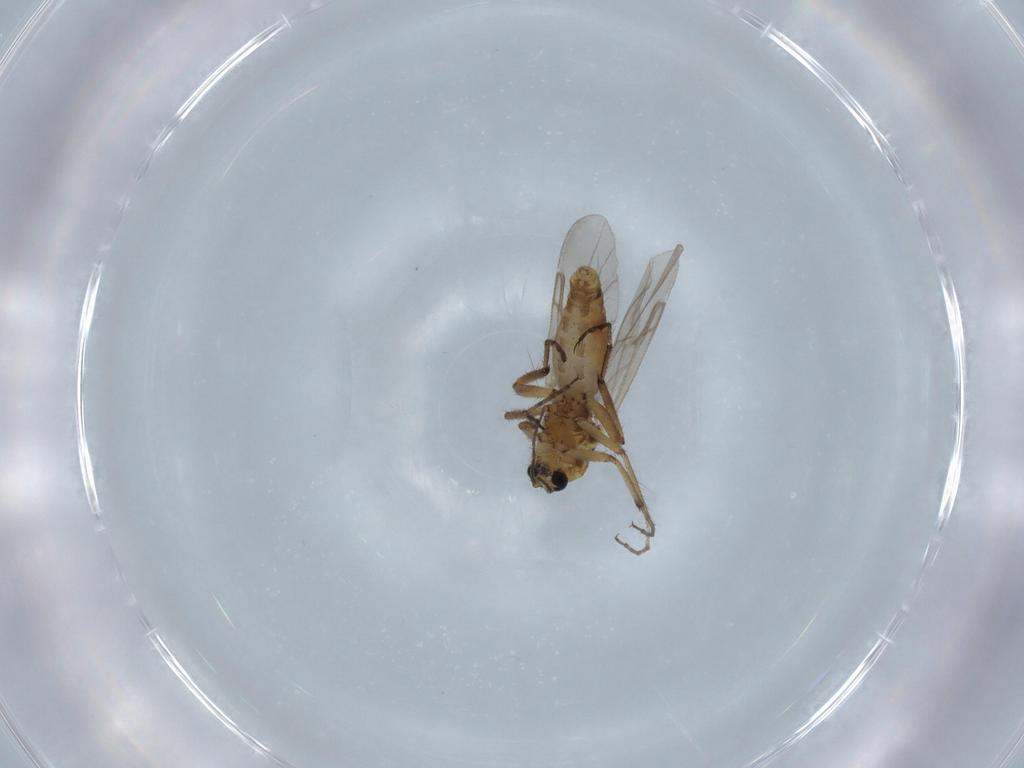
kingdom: Animalia
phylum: Arthropoda
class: Insecta
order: Diptera
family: Ceratopogonidae
